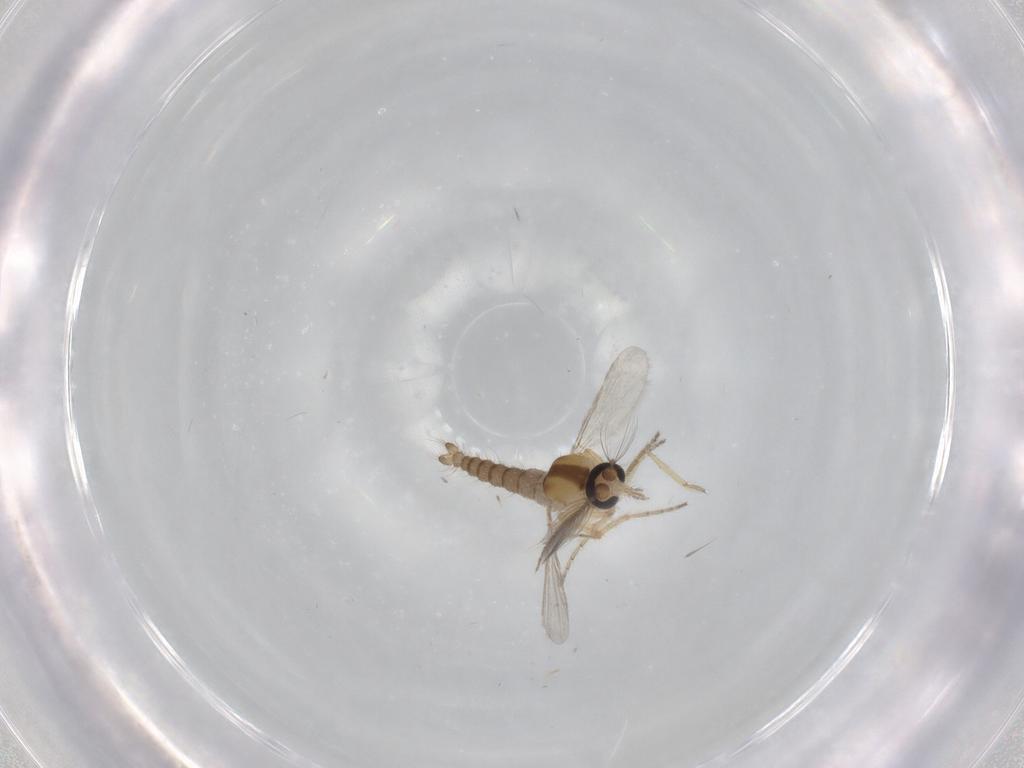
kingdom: Animalia
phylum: Arthropoda
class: Insecta
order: Diptera
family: Ceratopogonidae
